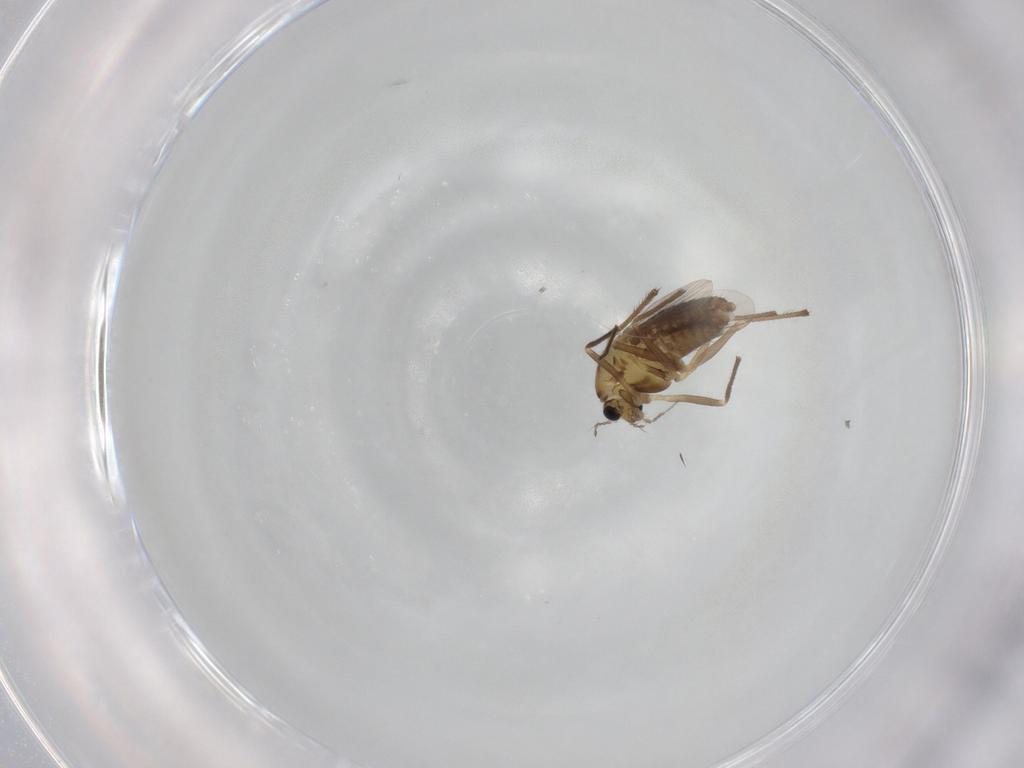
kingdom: Animalia
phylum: Arthropoda
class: Insecta
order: Diptera
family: Chironomidae
